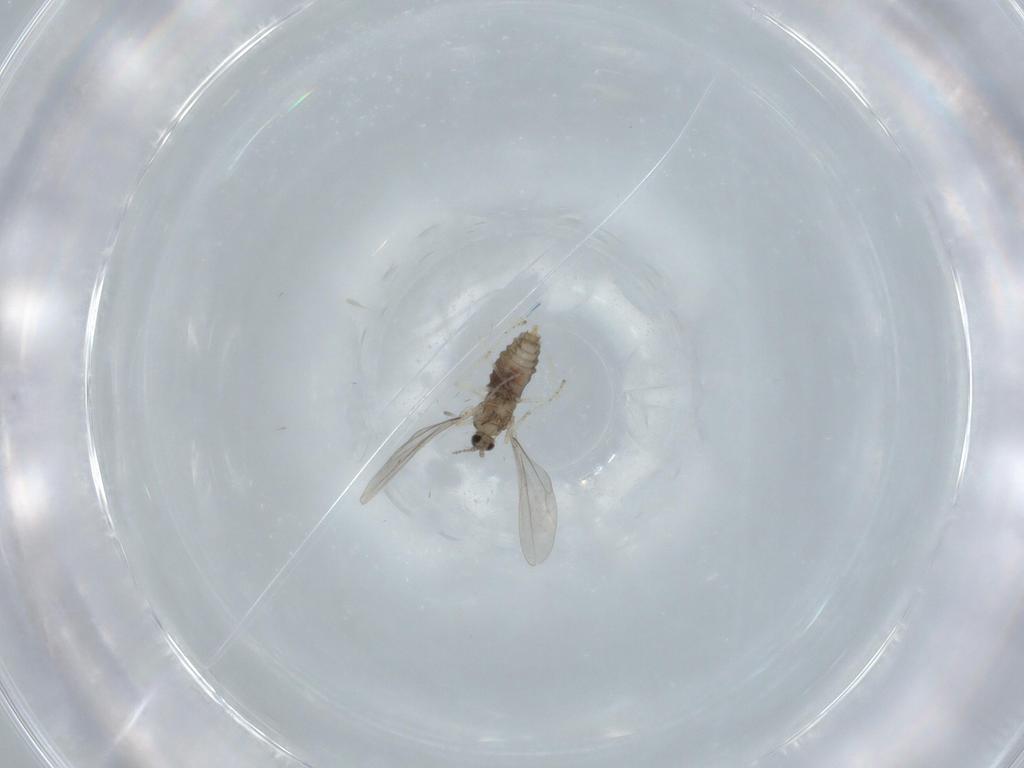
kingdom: Animalia
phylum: Arthropoda
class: Insecta
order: Diptera
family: Cecidomyiidae
